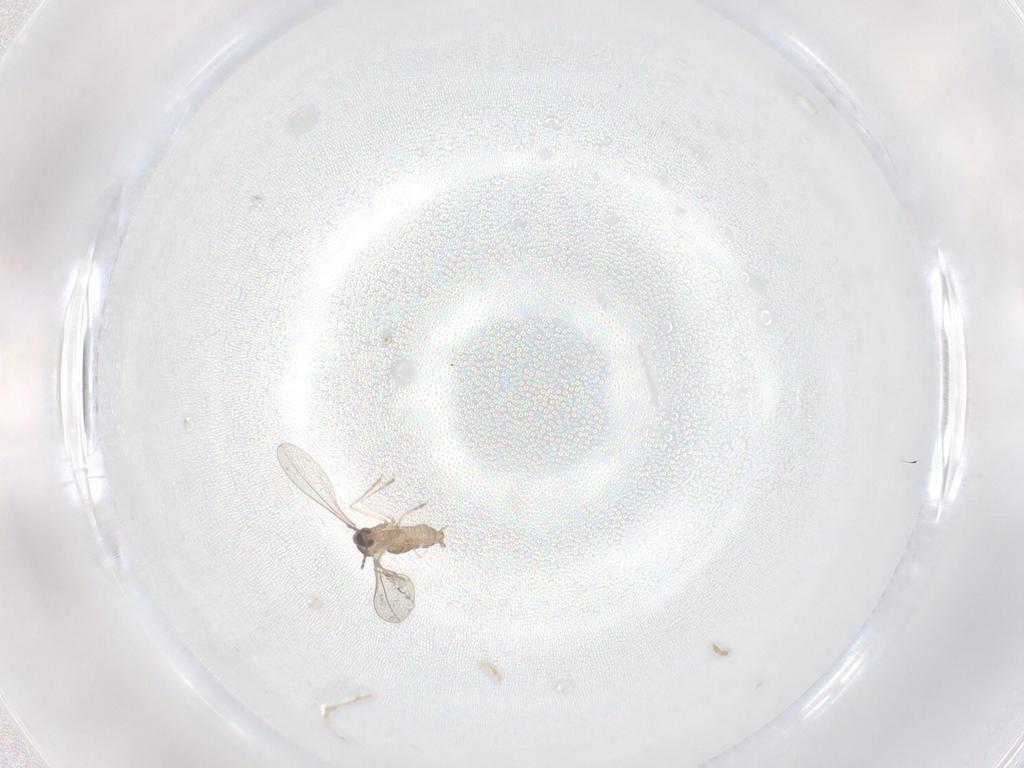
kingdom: Animalia
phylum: Arthropoda
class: Insecta
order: Diptera
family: Cecidomyiidae
